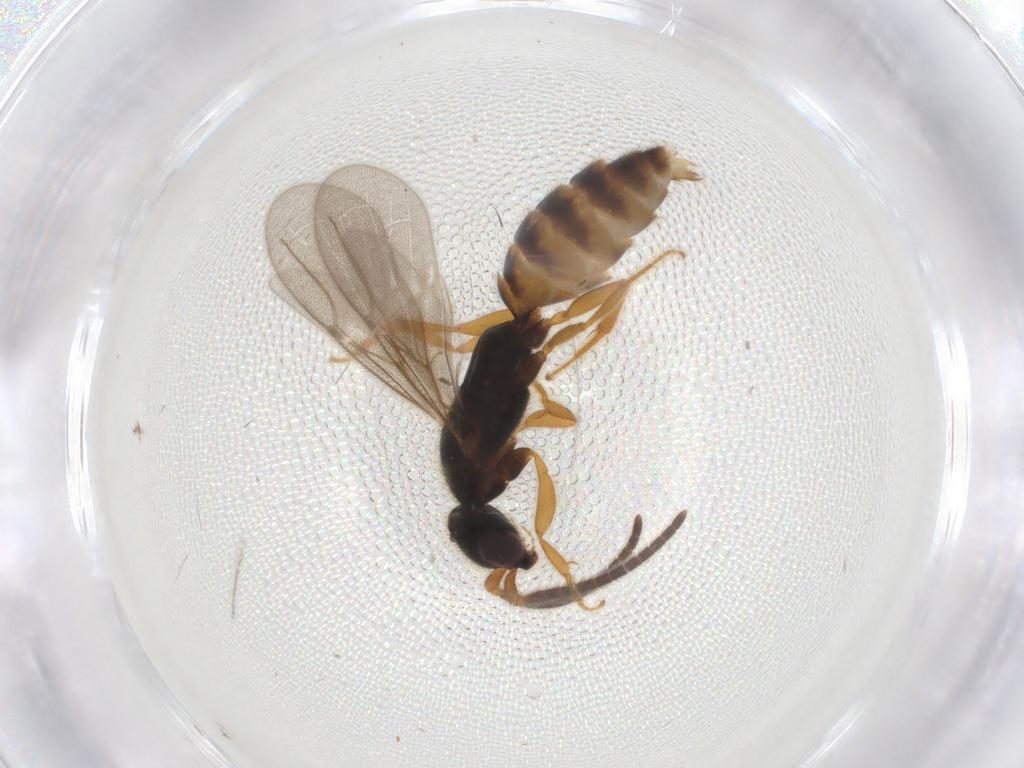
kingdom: Animalia
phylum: Arthropoda
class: Insecta
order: Hymenoptera
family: Bethylidae
